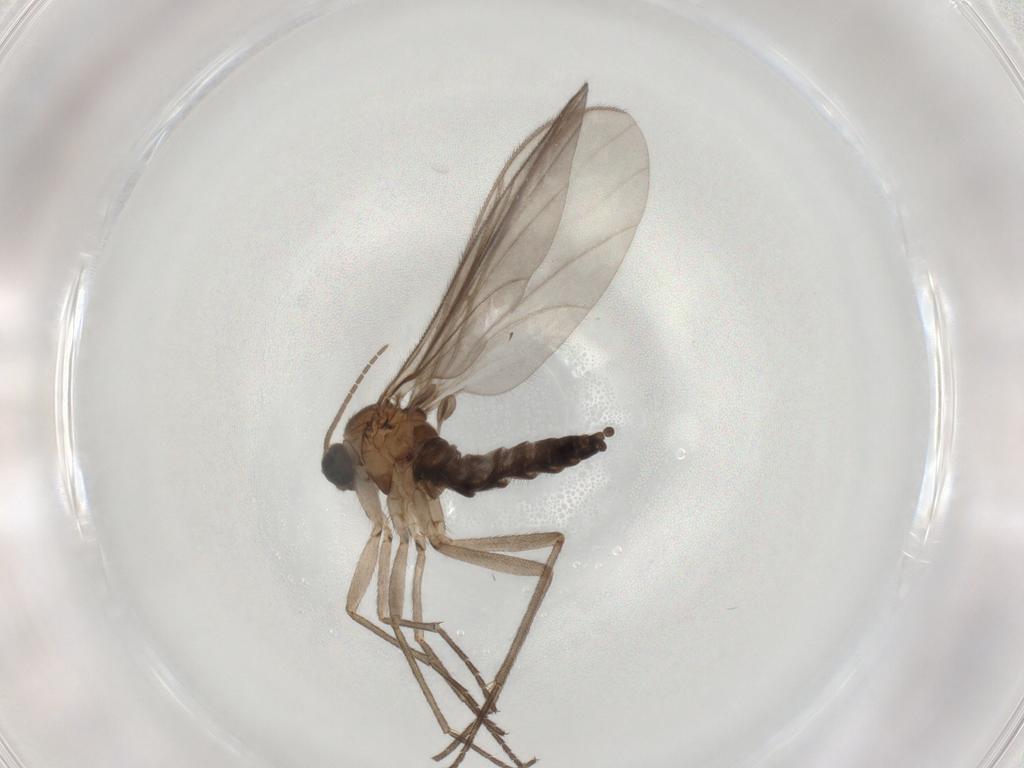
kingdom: Animalia
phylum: Arthropoda
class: Insecta
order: Diptera
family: Sciaridae
